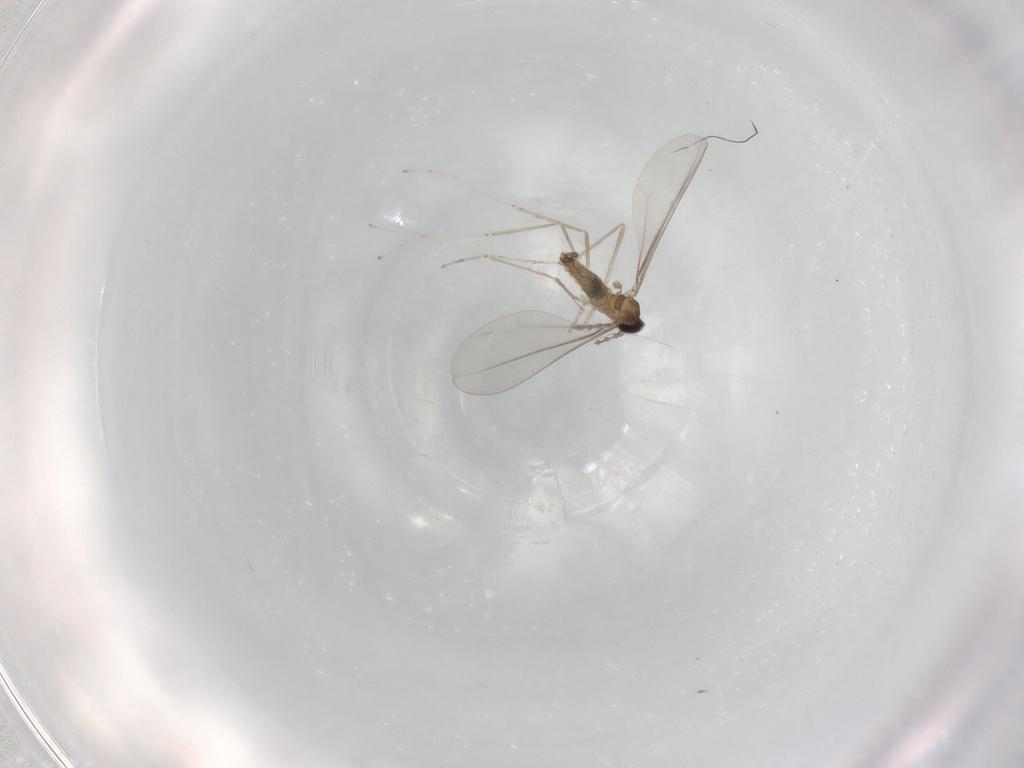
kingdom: Animalia
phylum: Arthropoda
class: Insecta
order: Diptera
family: Cecidomyiidae
